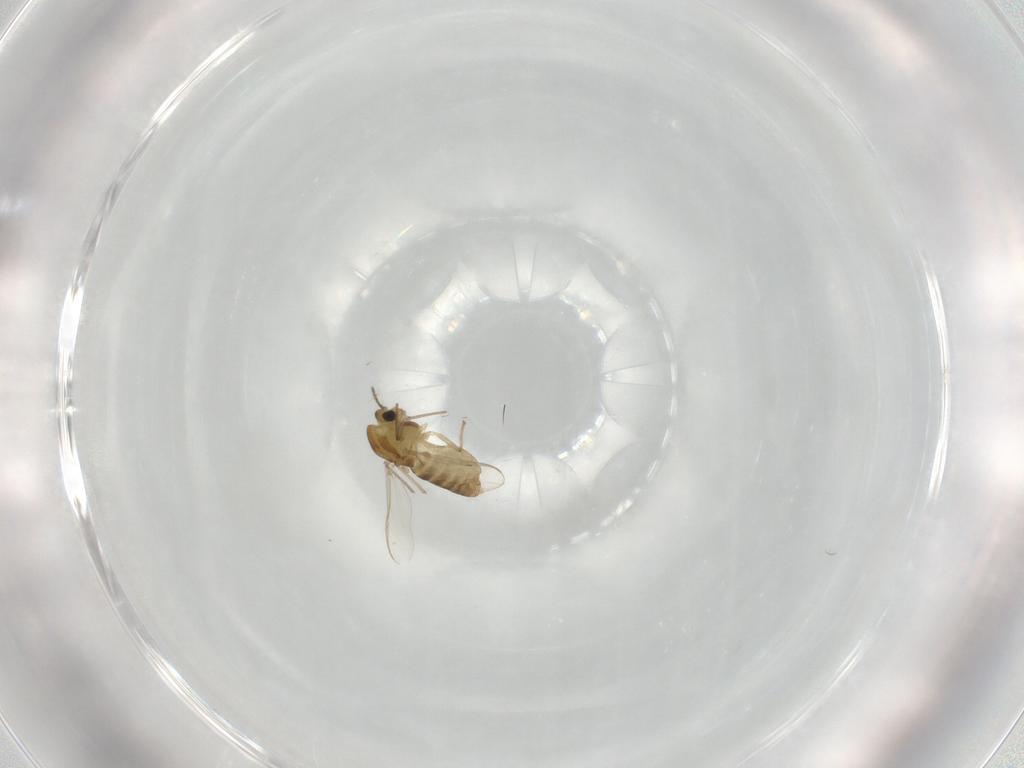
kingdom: Animalia
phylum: Arthropoda
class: Insecta
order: Diptera
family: Chironomidae
